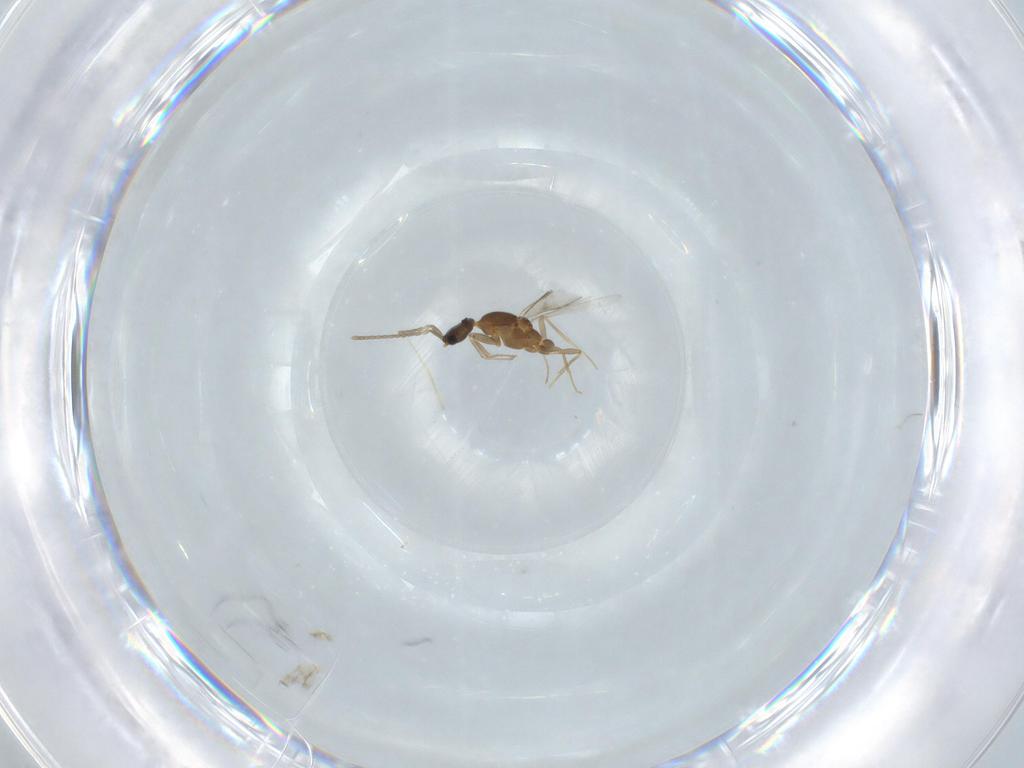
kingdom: Animalia
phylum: Arthropoda
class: Insecta
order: Hymenoptera
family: Formicidae
